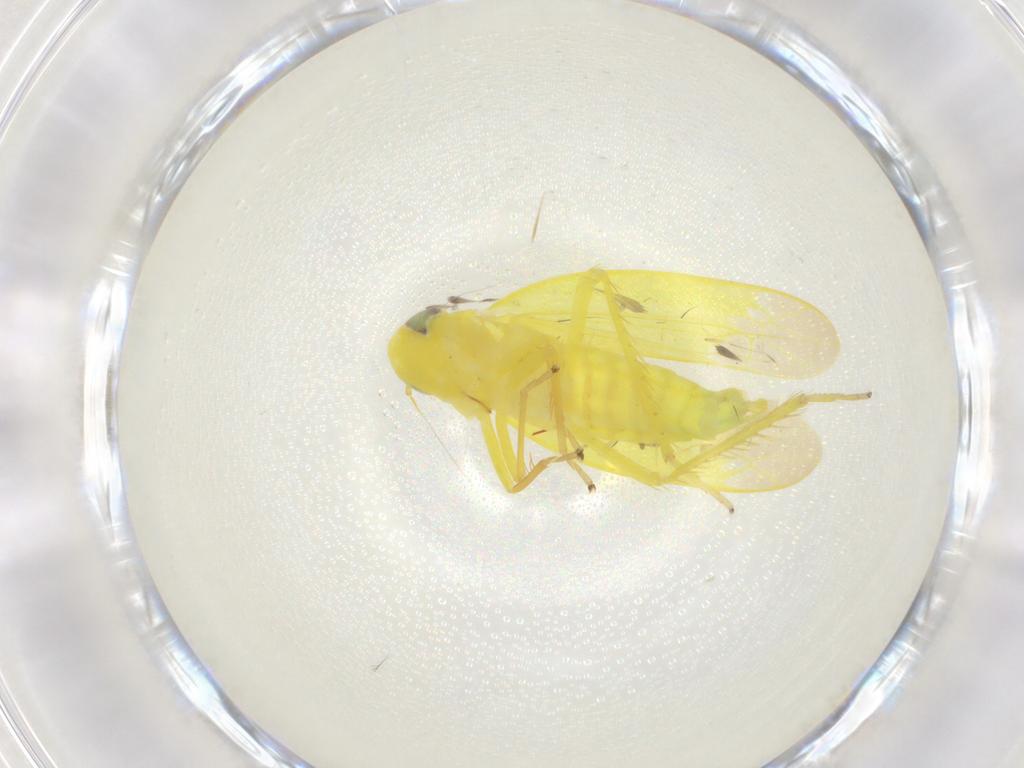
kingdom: Animalia
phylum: Arthropoda
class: Insecta
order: Hemiptera
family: Cicadellidae
